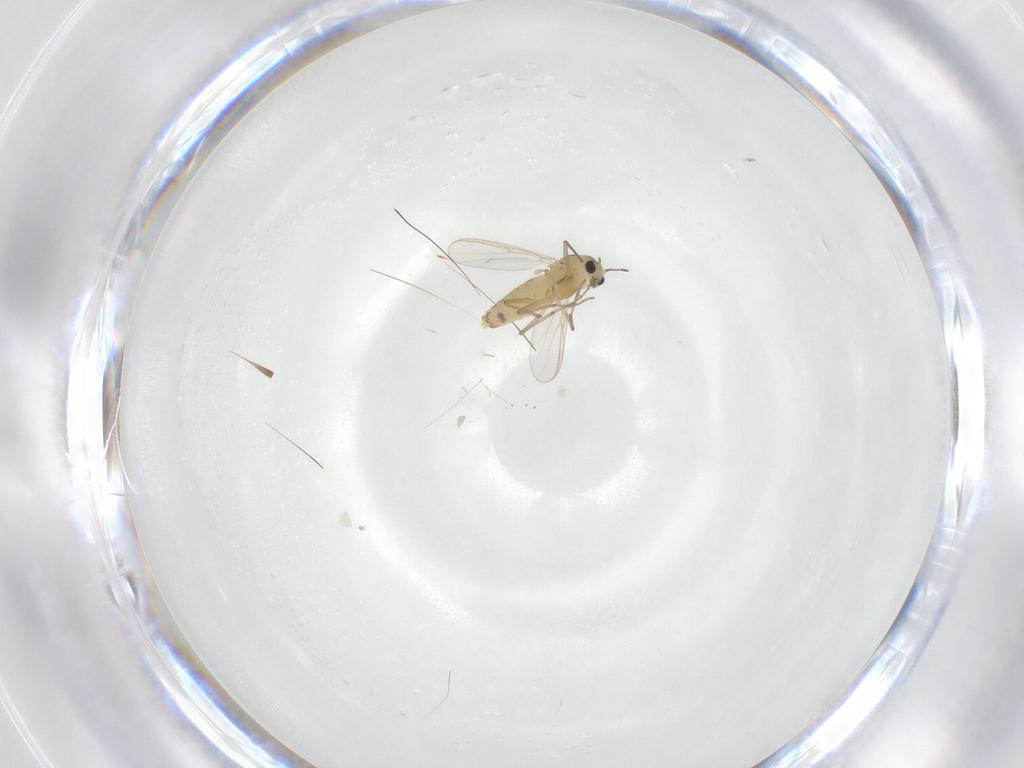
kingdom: Animalia
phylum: Arthropoda
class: Insecta
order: Diptera
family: Chironomidae
